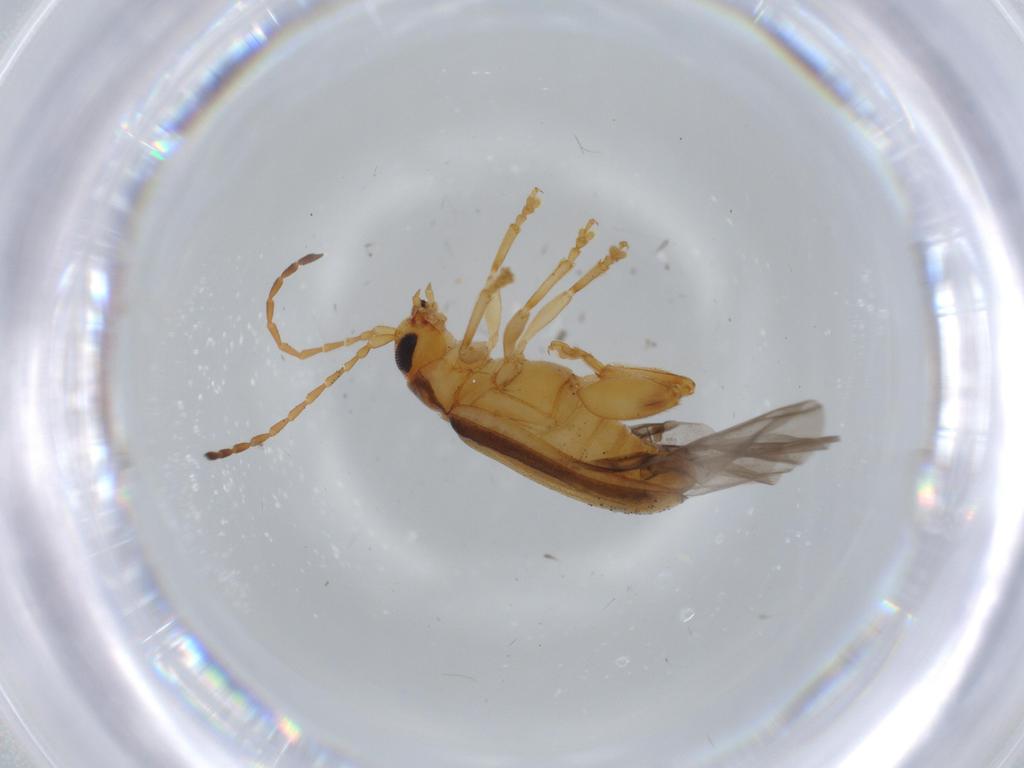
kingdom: Animalia
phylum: Arthropoda
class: Insecta
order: Coleoptera
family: Chrysomelidae
